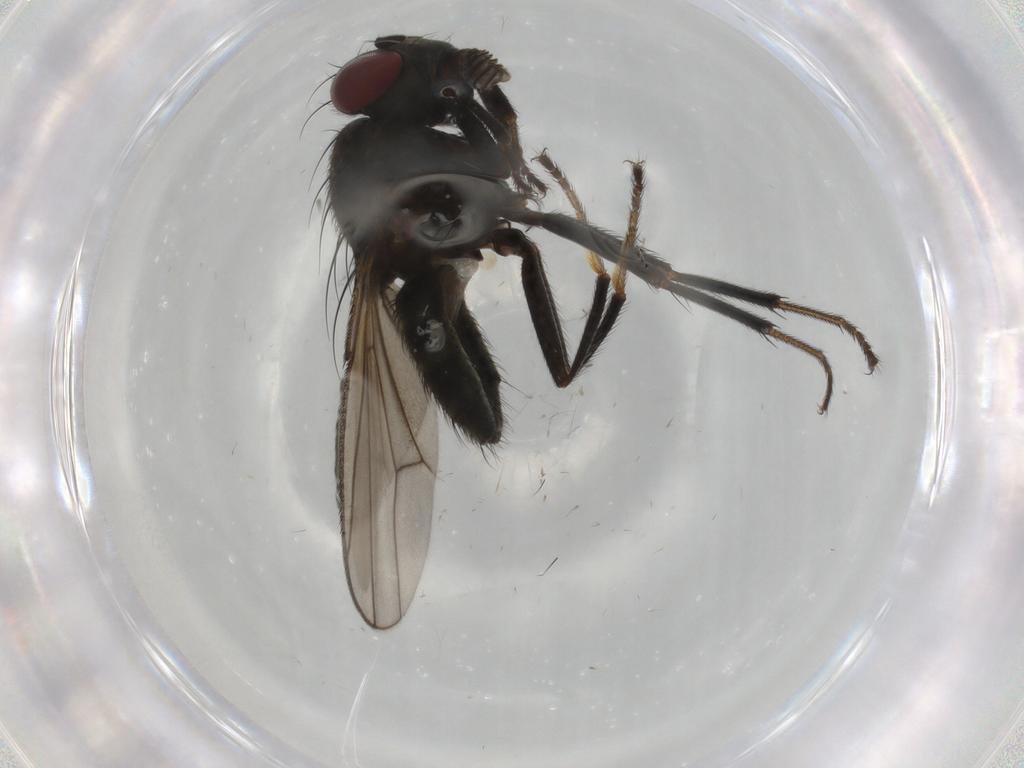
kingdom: Animalia
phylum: Arthropoda
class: Insecta
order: Diptera
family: Ephydridae
